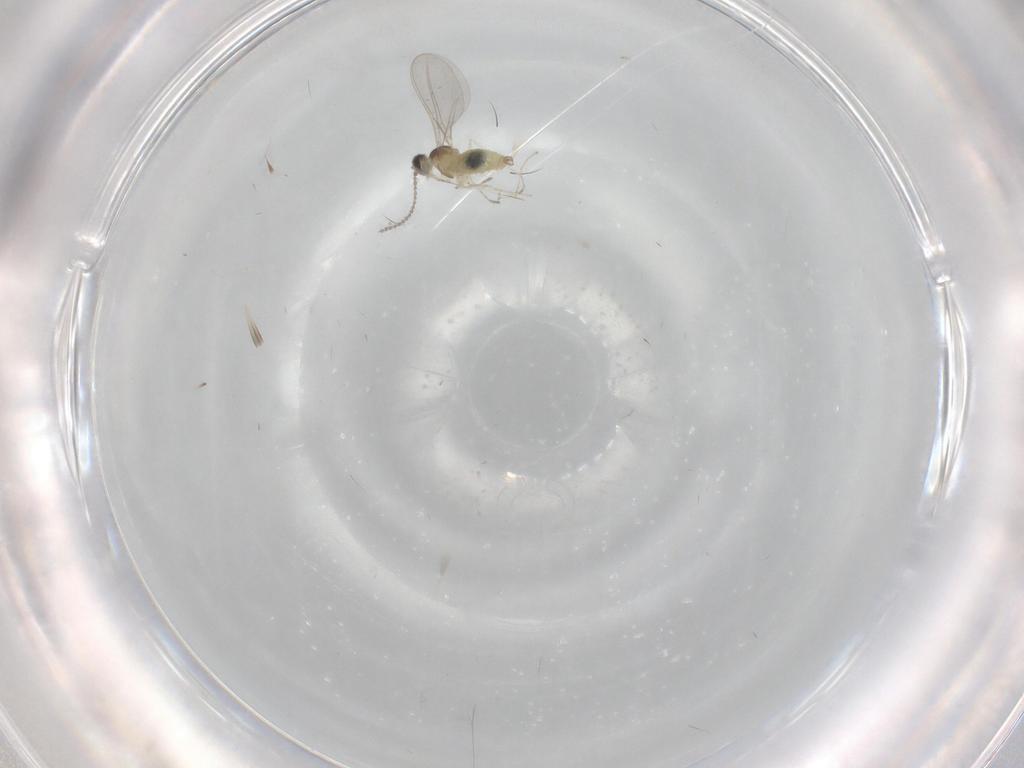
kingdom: Animalia
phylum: Arthropoda
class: Insecta
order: Diptera
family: Cecidomyiidae
